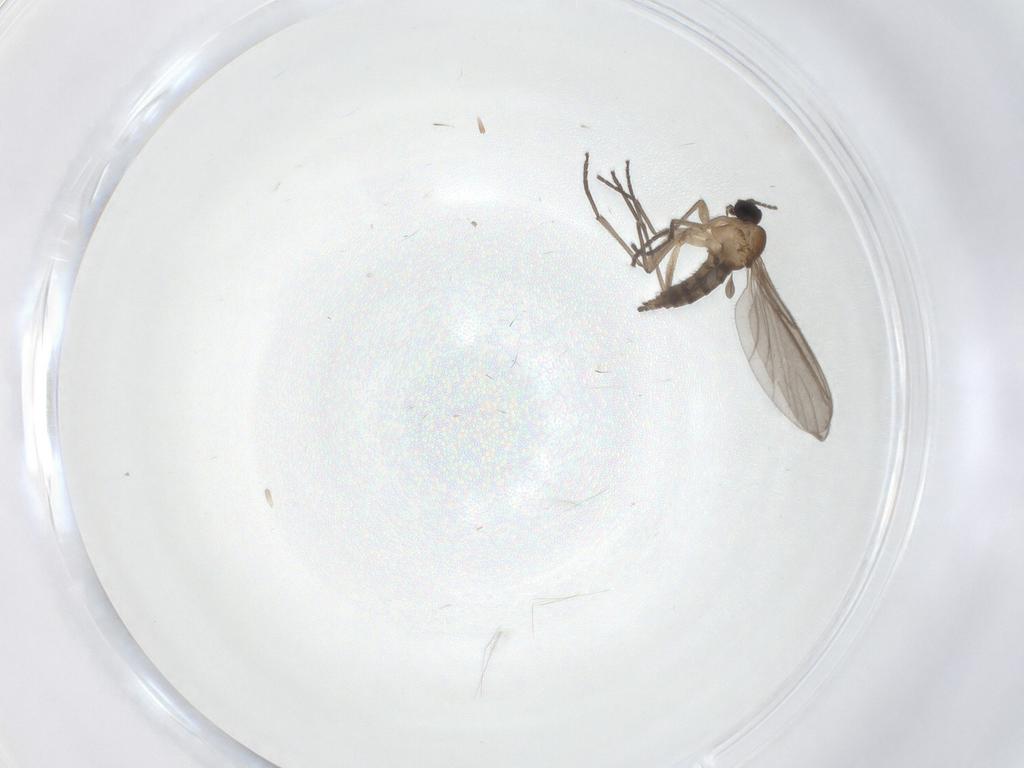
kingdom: Animalia
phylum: Arthropoda
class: Insecta
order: Diptera
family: Sciaridae
